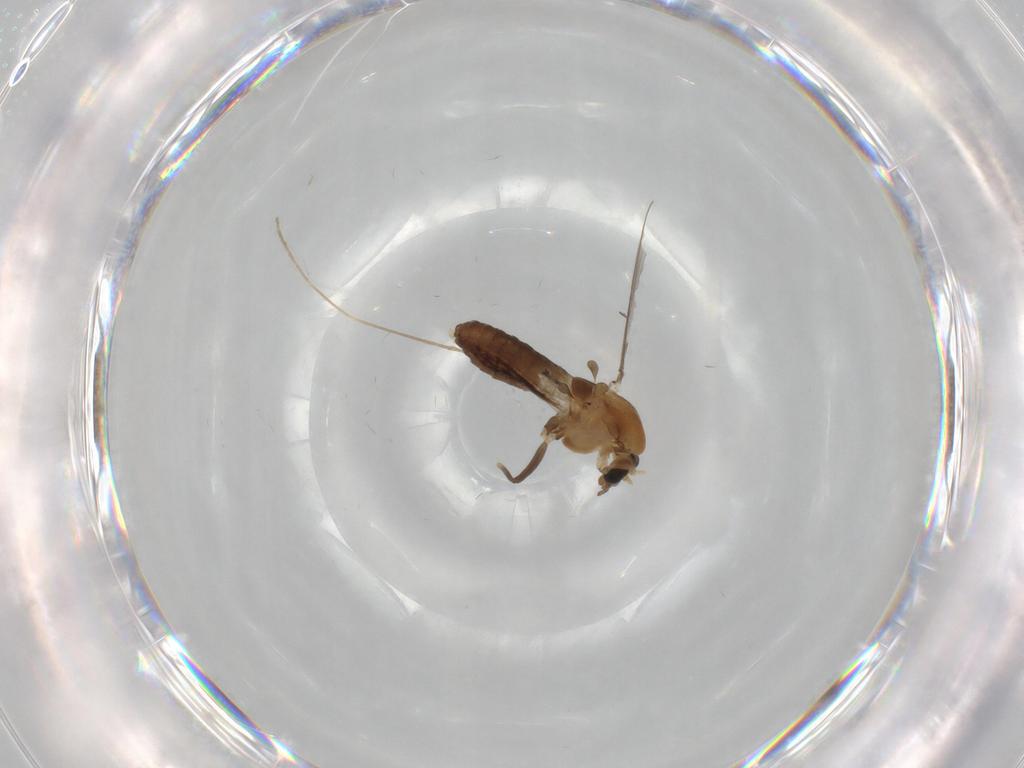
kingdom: Animalia
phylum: Arthropoda
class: Insecta
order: Diptera
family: Chironomidae
